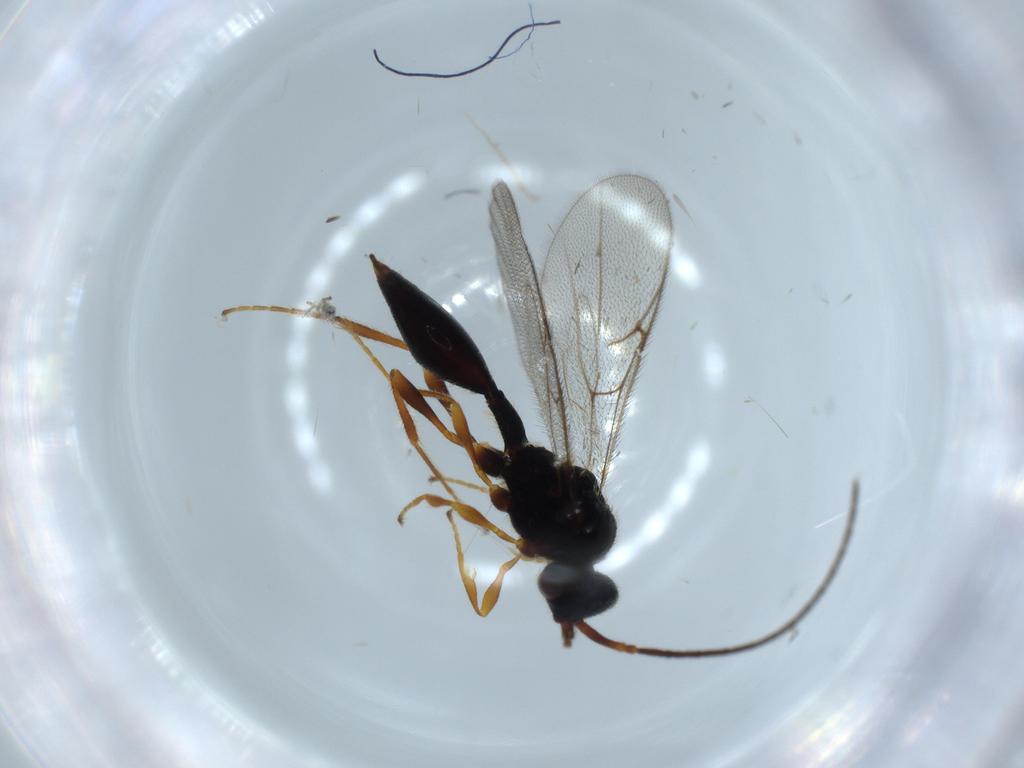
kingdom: Animalia
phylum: Arthropoda
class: Insecta
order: Hymenoptera
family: Diapriidae
